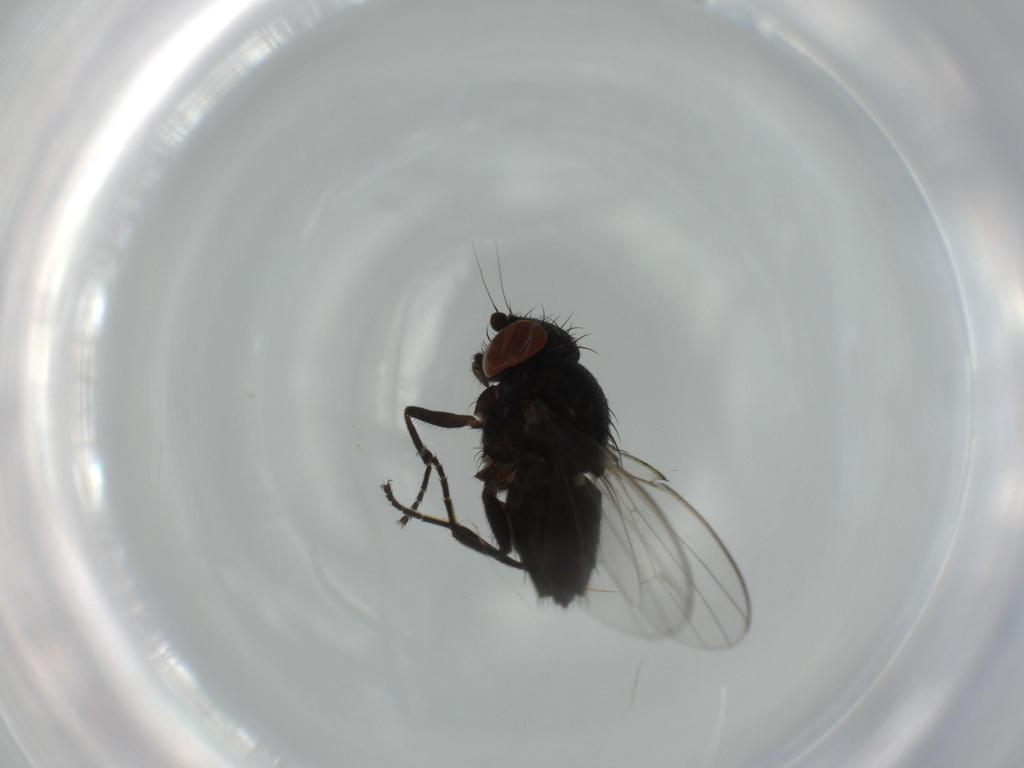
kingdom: Animalia
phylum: Arthropoda
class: Insecta
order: Diptera
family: Milichiidae
